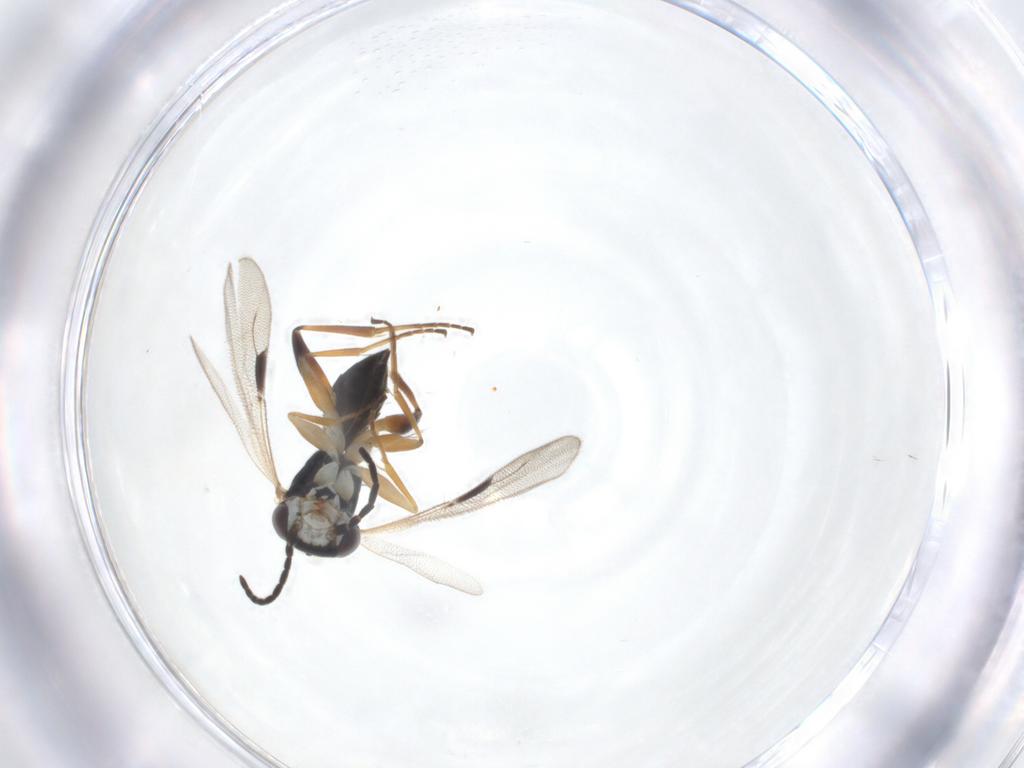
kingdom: Animalia
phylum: Arthropoda
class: Insecta
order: Hymenoptera
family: Dryinidae
